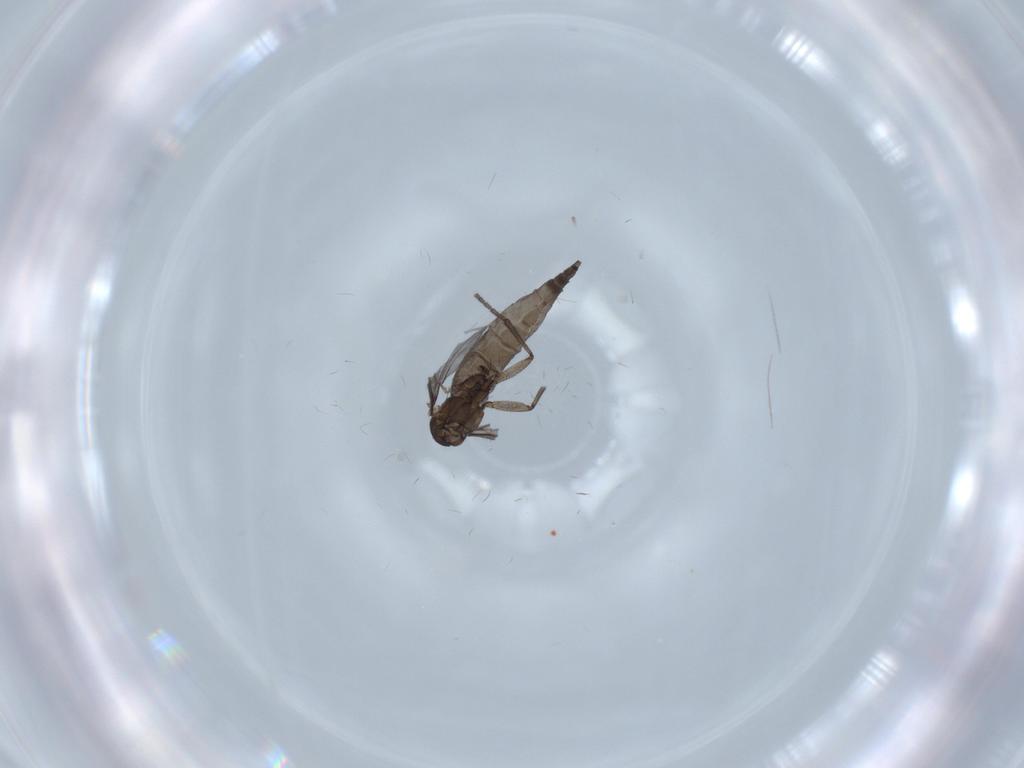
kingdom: Animalia
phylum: Arthropoda
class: Insecta
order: Diptera
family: Sciaridae
